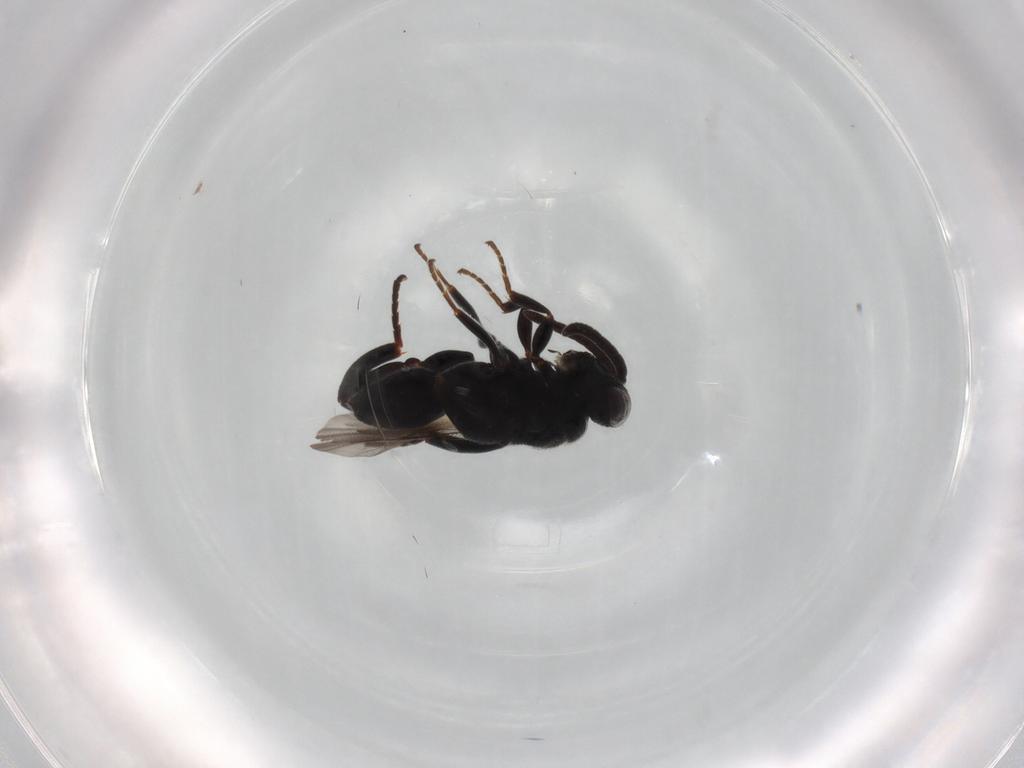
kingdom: Animalia
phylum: Arthropoda
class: Insecta
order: Hymenoptera
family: Chalcididae
